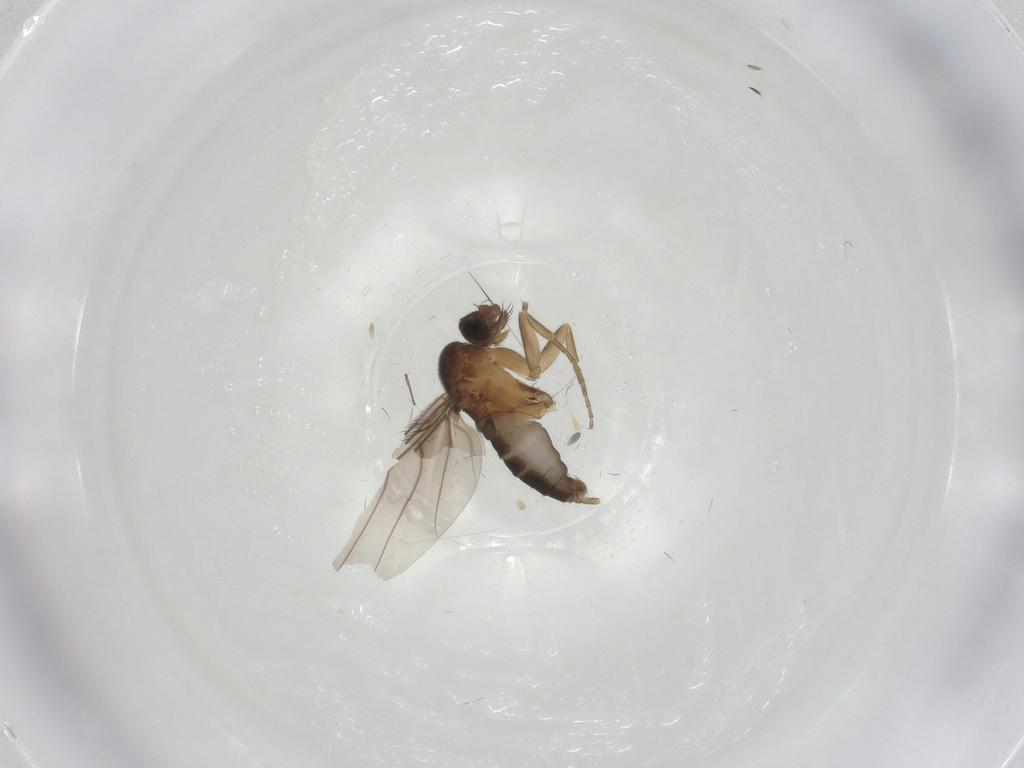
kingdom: Animalia
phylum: Arthropoda
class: Insecta
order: Diptera
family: Phoridae
